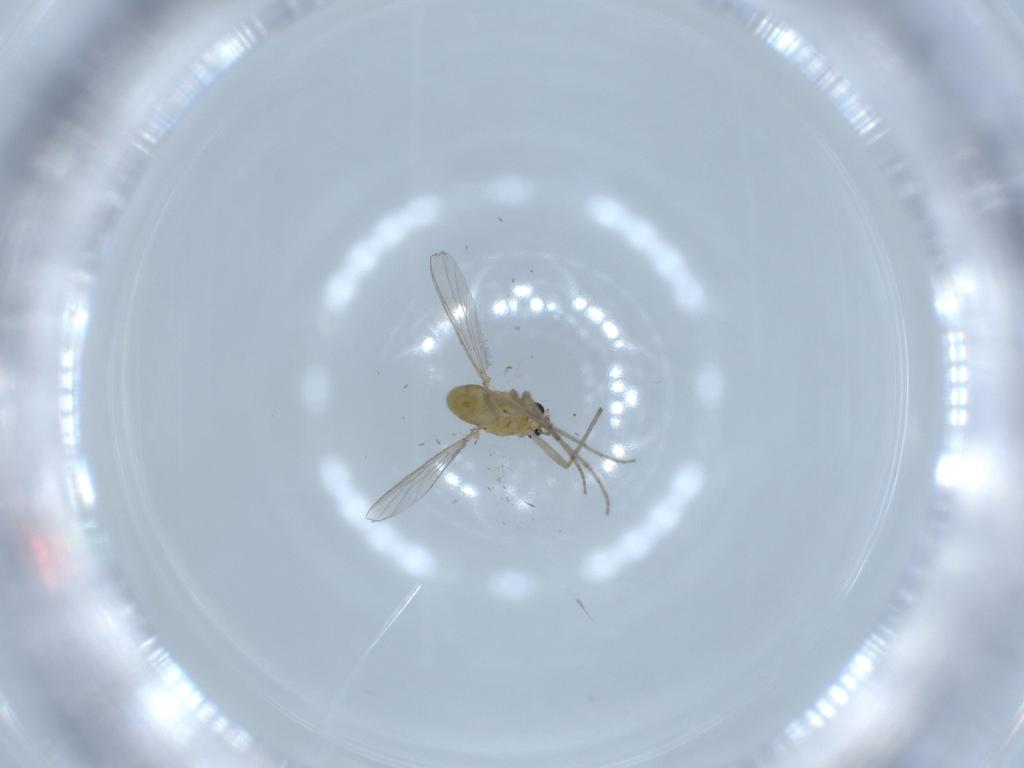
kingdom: Animalia
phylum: Arthropoda
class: Insecta
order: Diptera
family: Chironomidae
